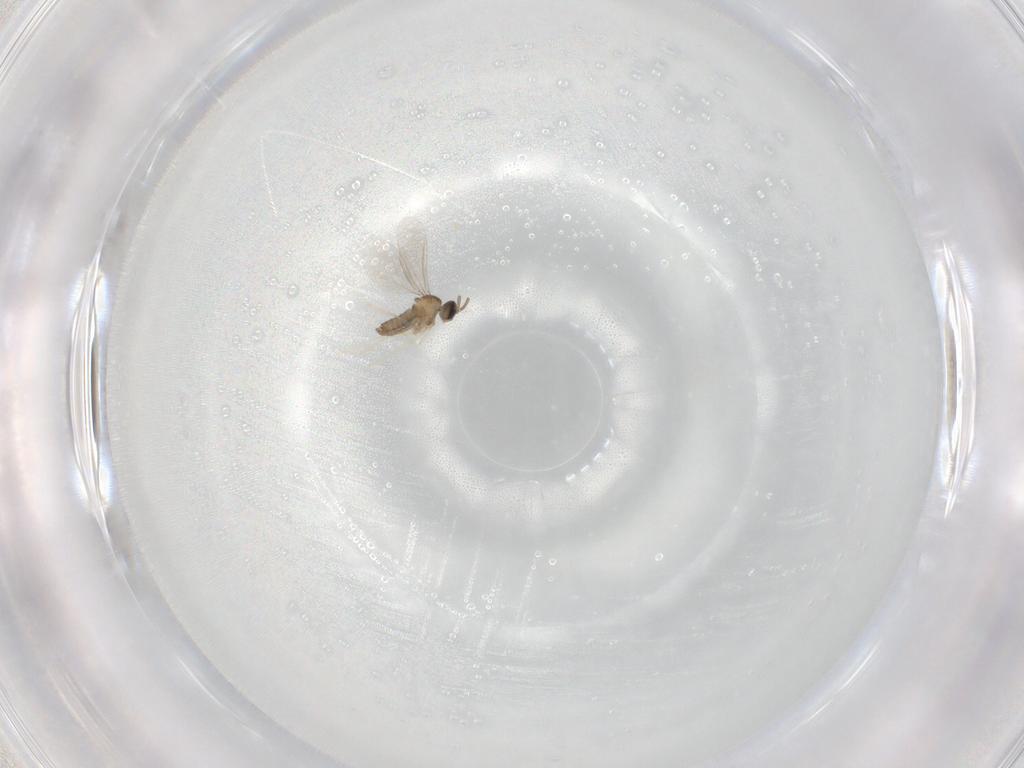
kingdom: Animalia
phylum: Arthropoda
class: Insecta
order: Diptera
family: Cecidomyiidae
